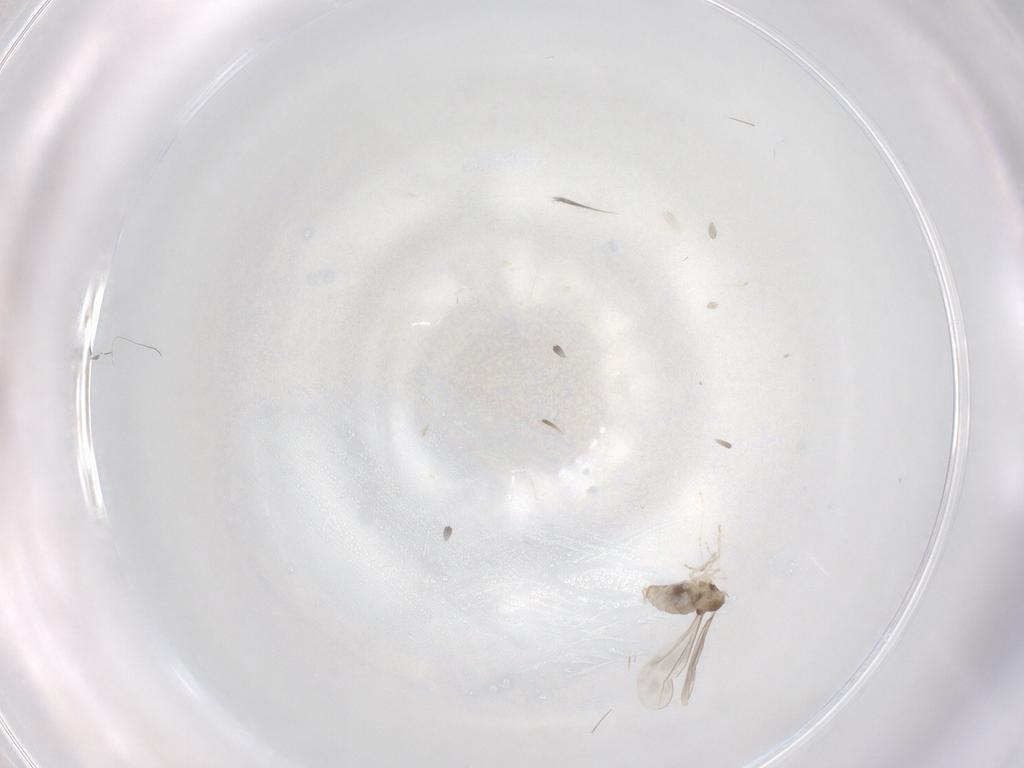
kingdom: Animalia
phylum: Arthropoda
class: Insecta
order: Diptera
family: Cecidomyiidae
